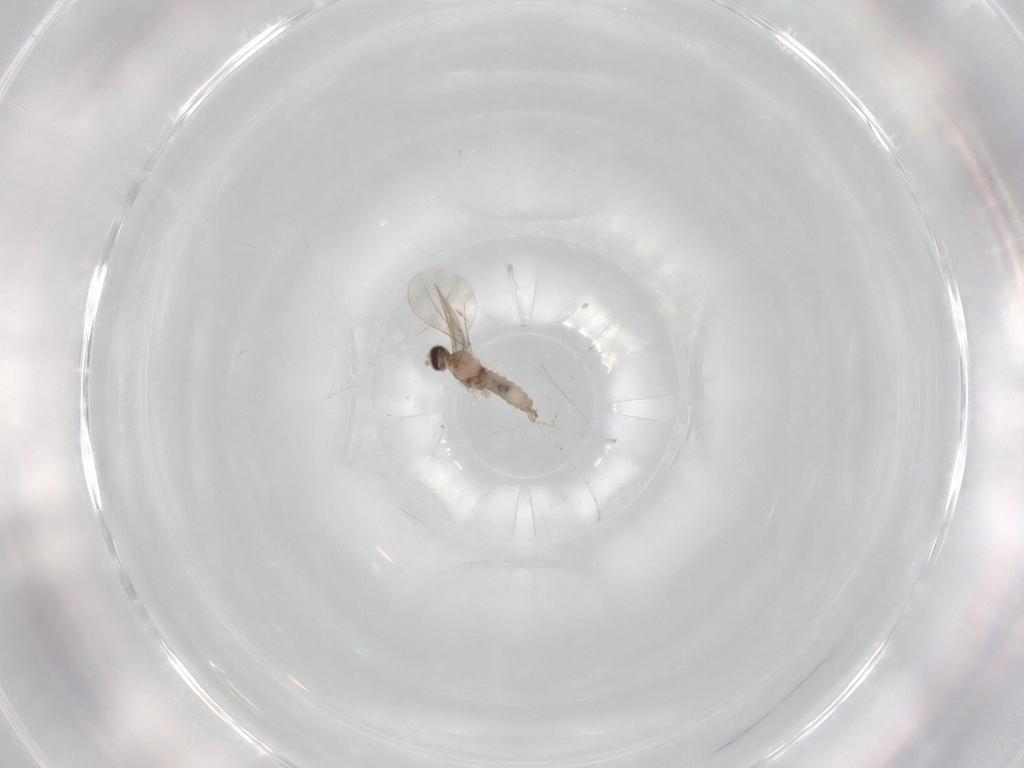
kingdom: Animalia
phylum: Arthropoda
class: Insecta
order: Diptera
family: Cecidomyiidae
